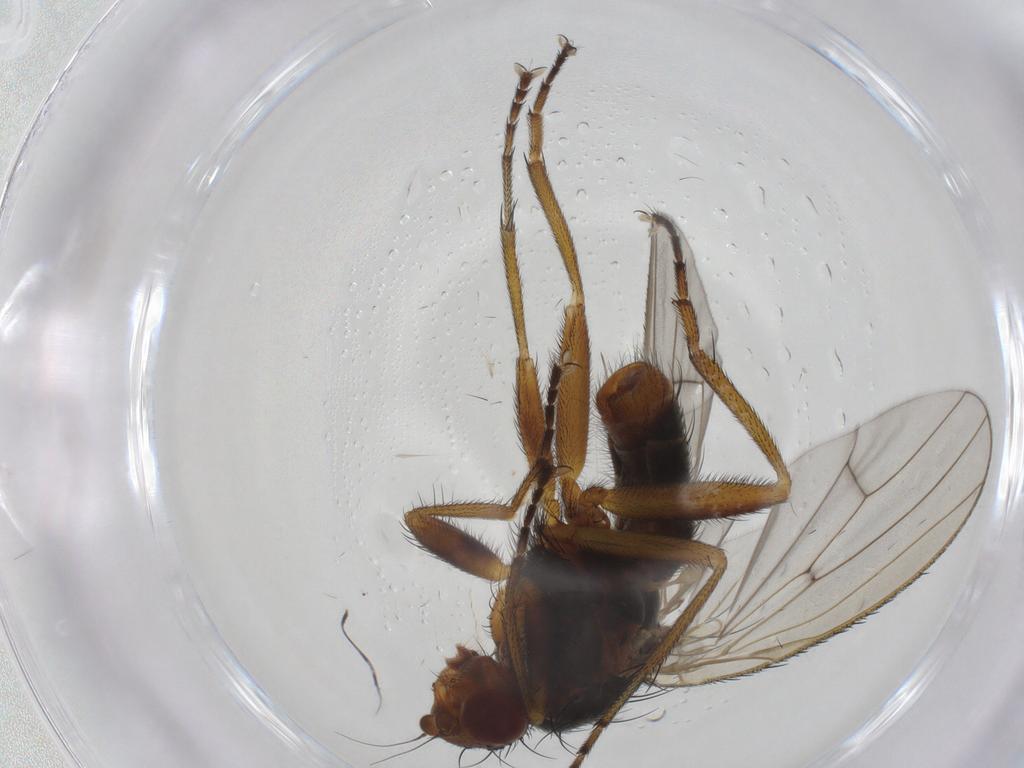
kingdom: Animalia
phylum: Arthropoda
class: Insecta
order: Diptera
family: Heleomyzidae
